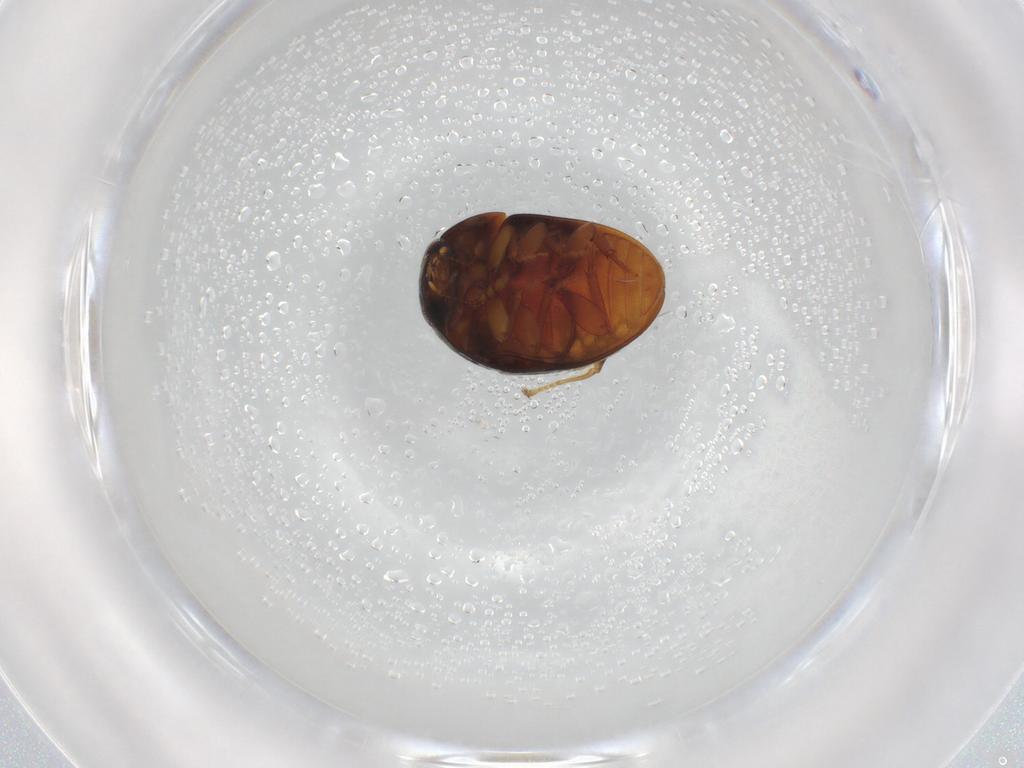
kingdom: Animalia
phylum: Arthropoda
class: Insecta
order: Coleoptera
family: Phalacridae
